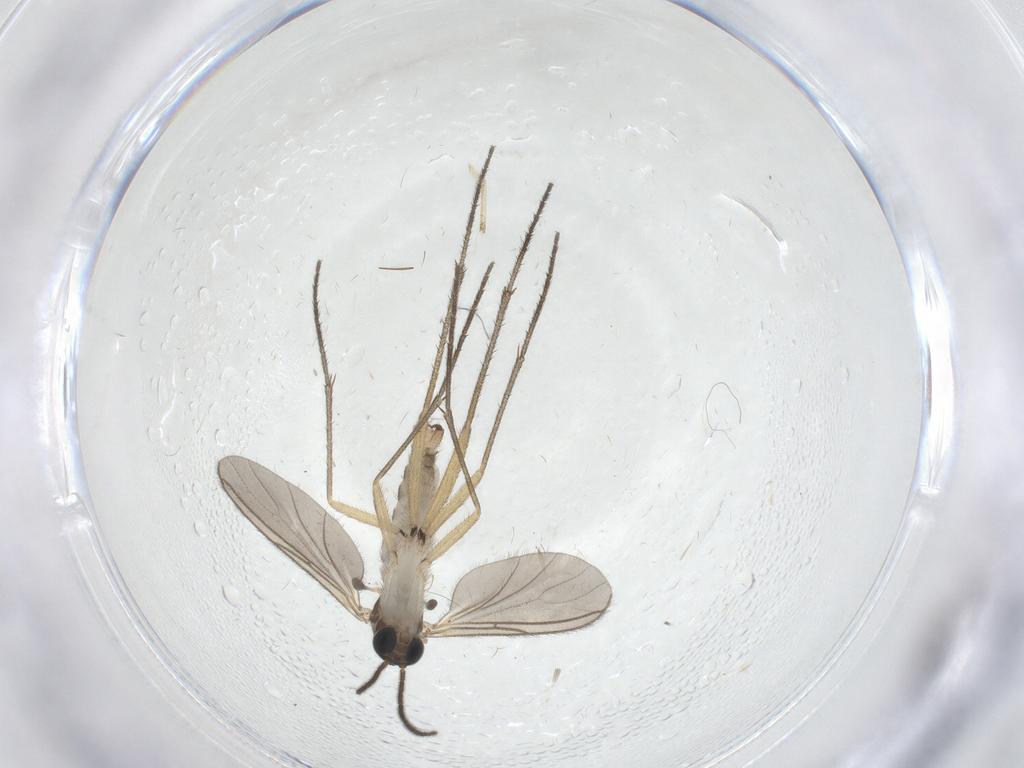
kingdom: Animalia
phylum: Arthropoda
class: Insecta
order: Diptera
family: Sciaridae
